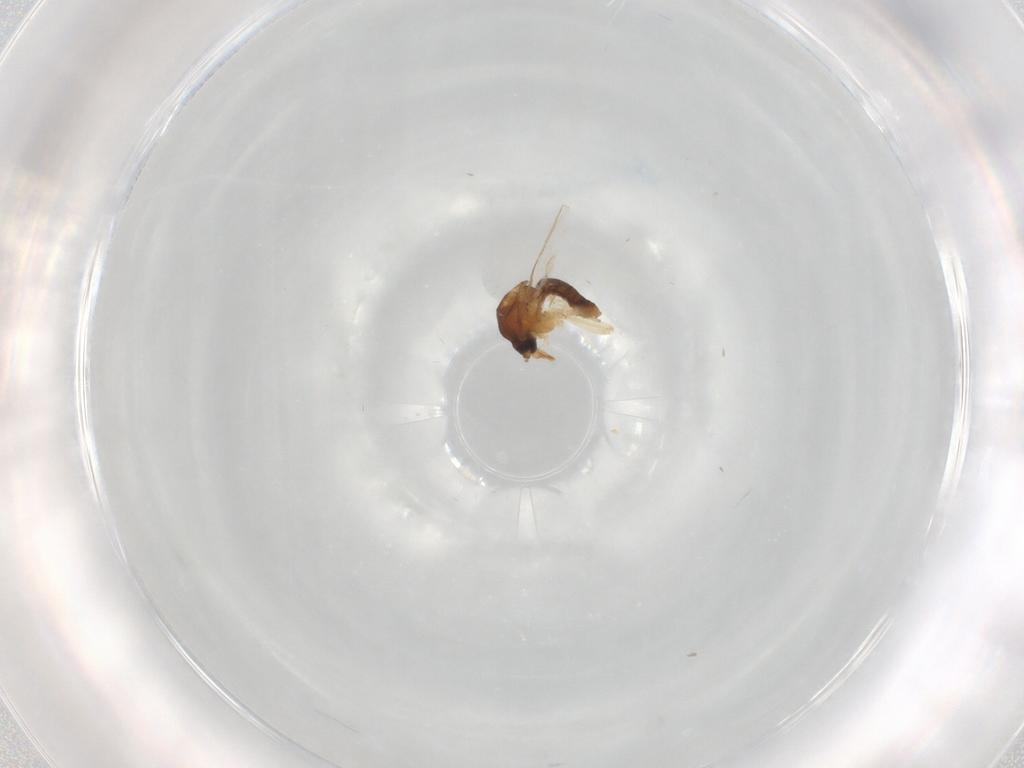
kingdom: Animalia
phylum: Arthropoda
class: Insecta
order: Diptera
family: Ceratopogonidae
